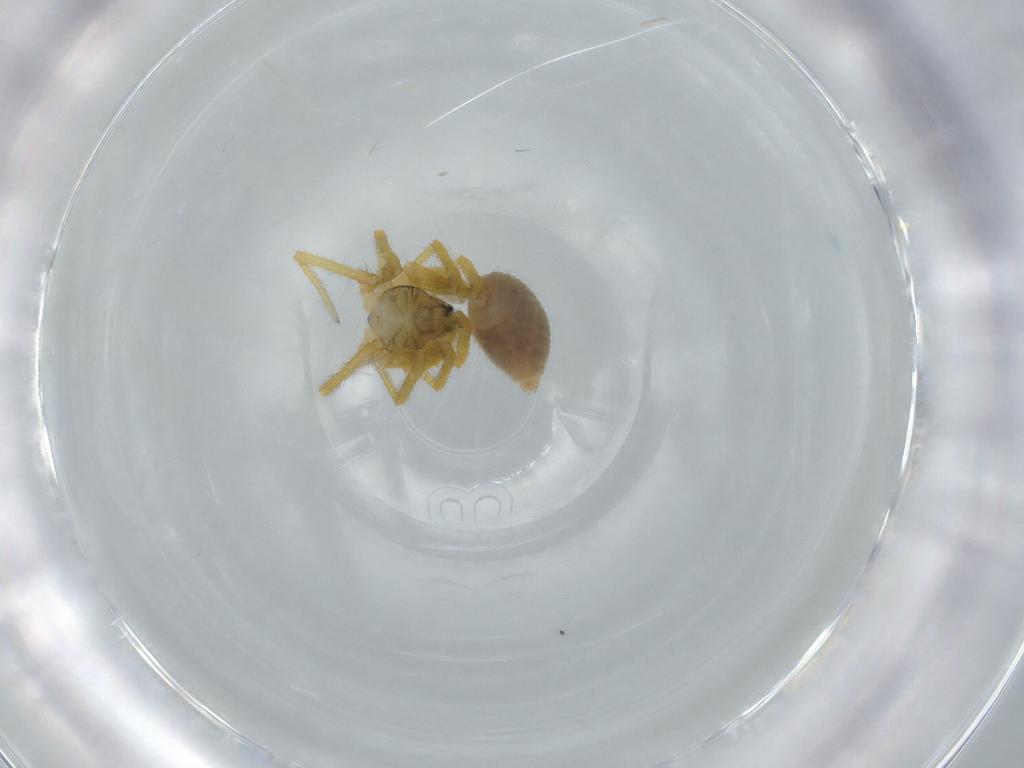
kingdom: Animalia
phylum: Arthropoda
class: Arachnida
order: Araneae
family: Linyphiidae
